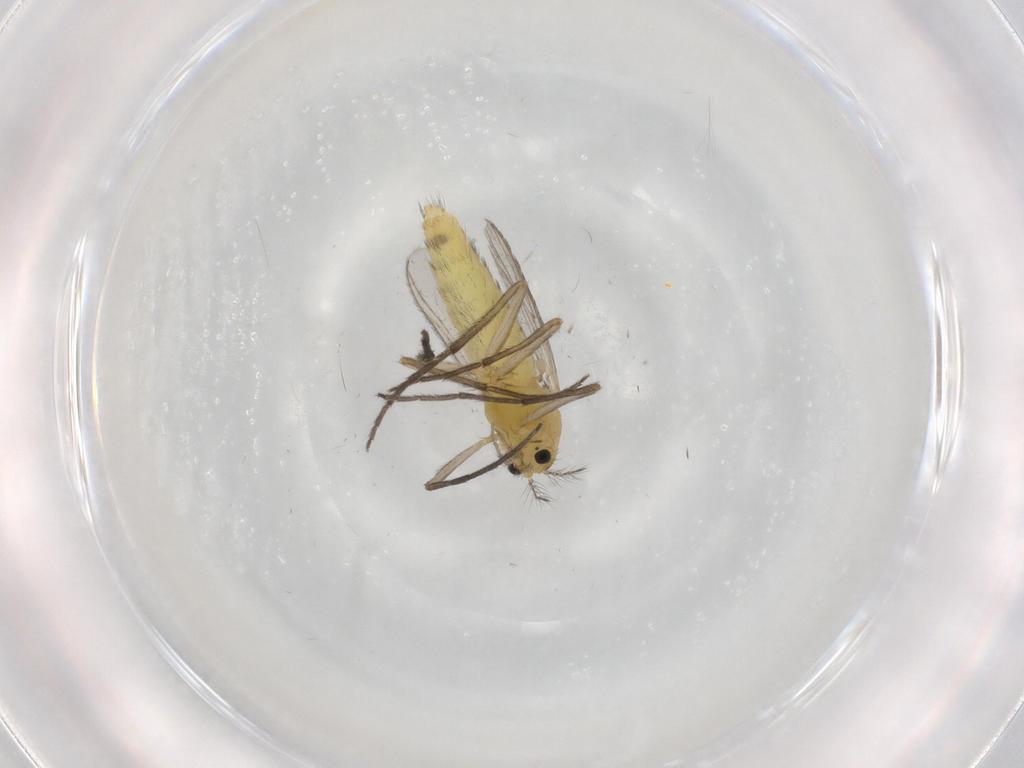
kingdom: Animalia
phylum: Arthropoda
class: Insecta
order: Diptera
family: Chironomidae
